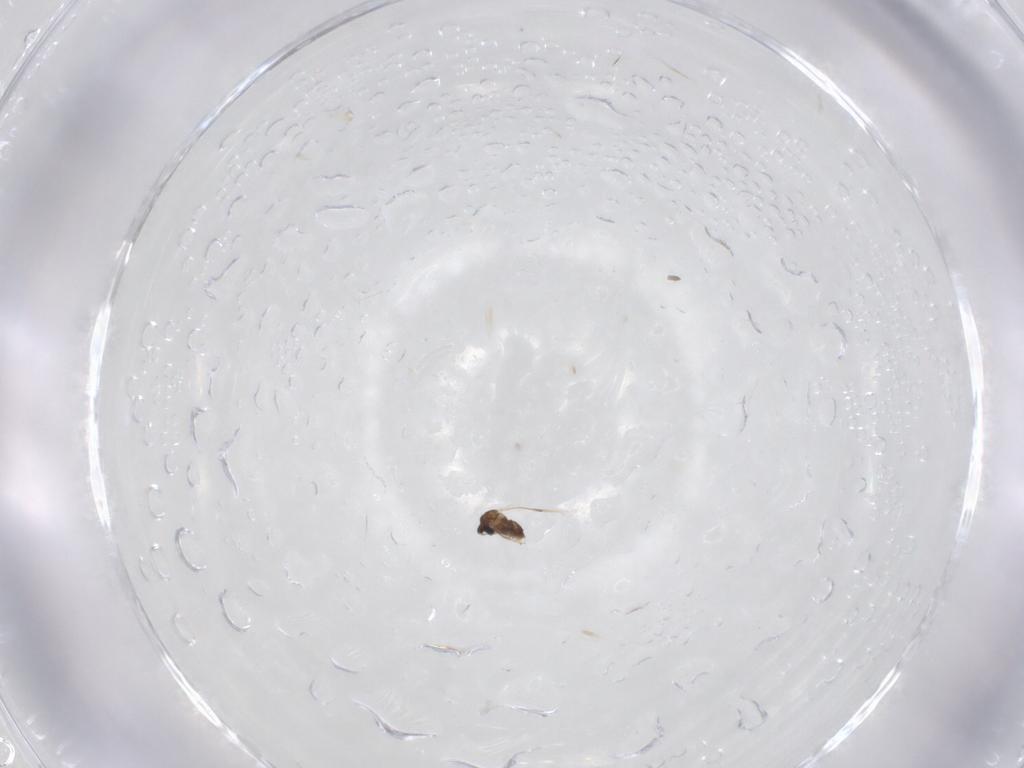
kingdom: Animalia
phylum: Arthropoda
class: Insecta
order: Diptera
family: Cecidomyiidae
